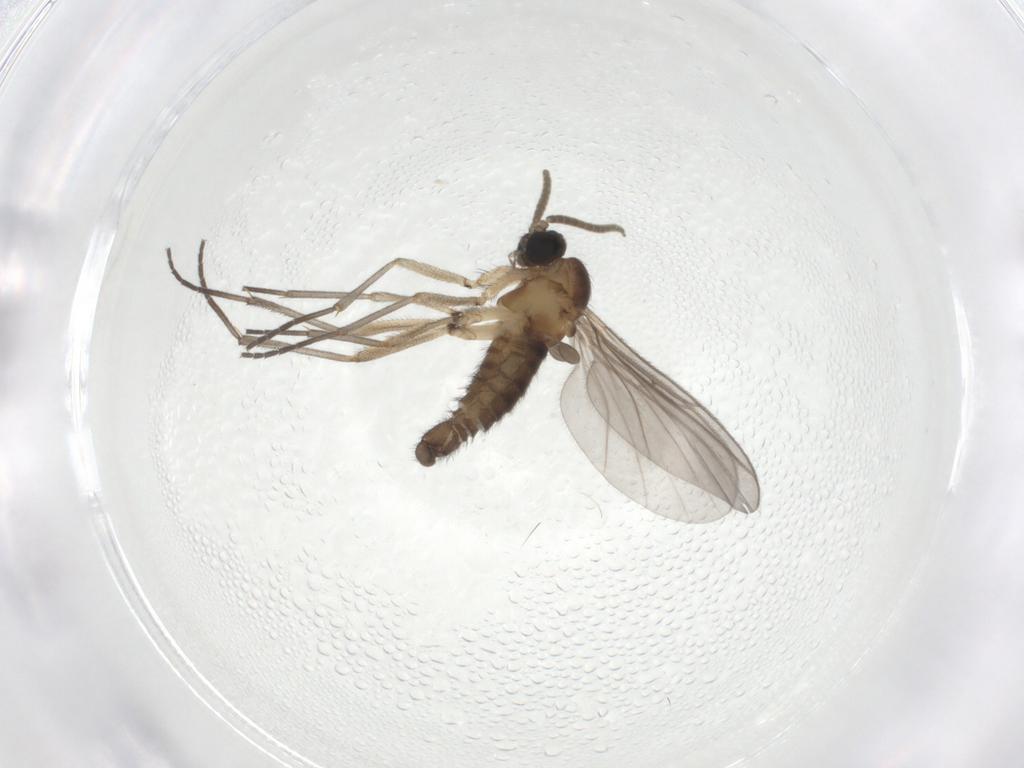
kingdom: Animalia
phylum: Arthropoda
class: Insecta
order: Diptera
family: Sciaridae
